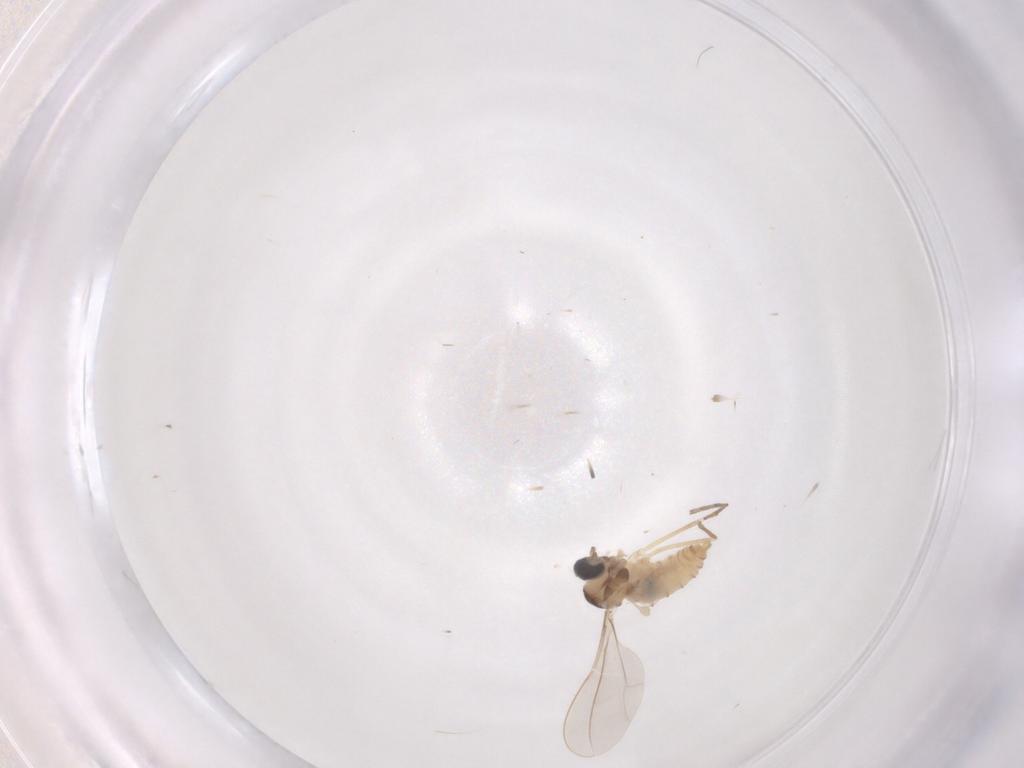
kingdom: Animalia
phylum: Arthropoda
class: Insecta
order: Diptera
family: Cecidomyiidae
